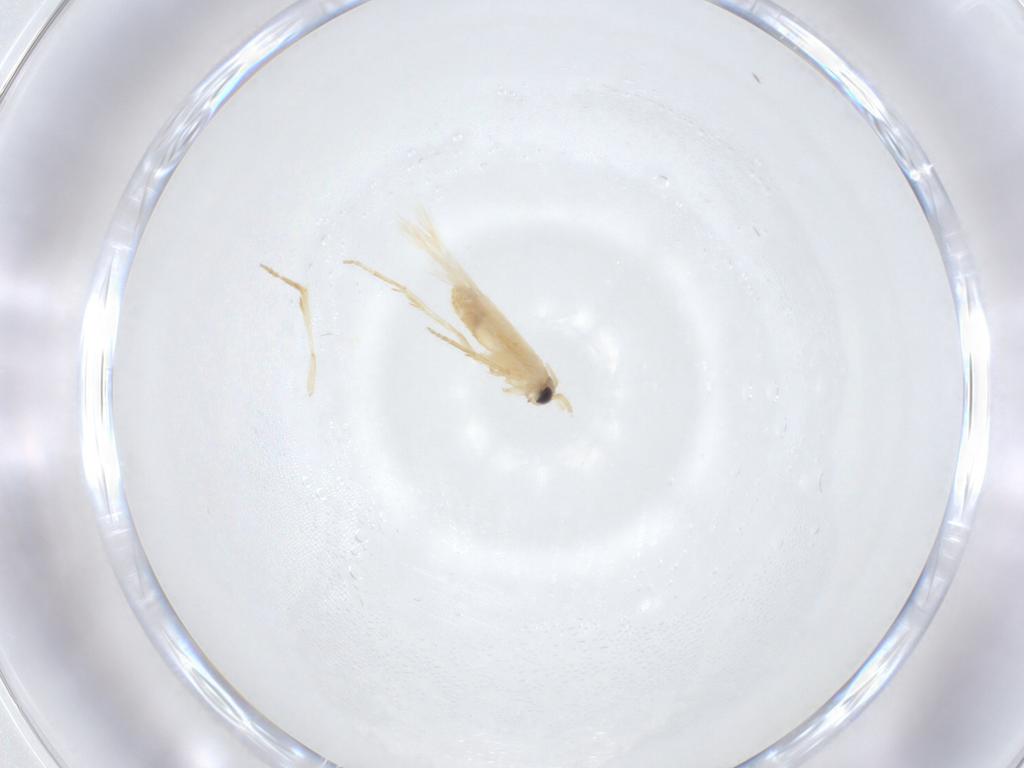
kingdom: Animalia
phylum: Arthropoda
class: Insecta
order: Lepidoptera
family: Nepticulidae
